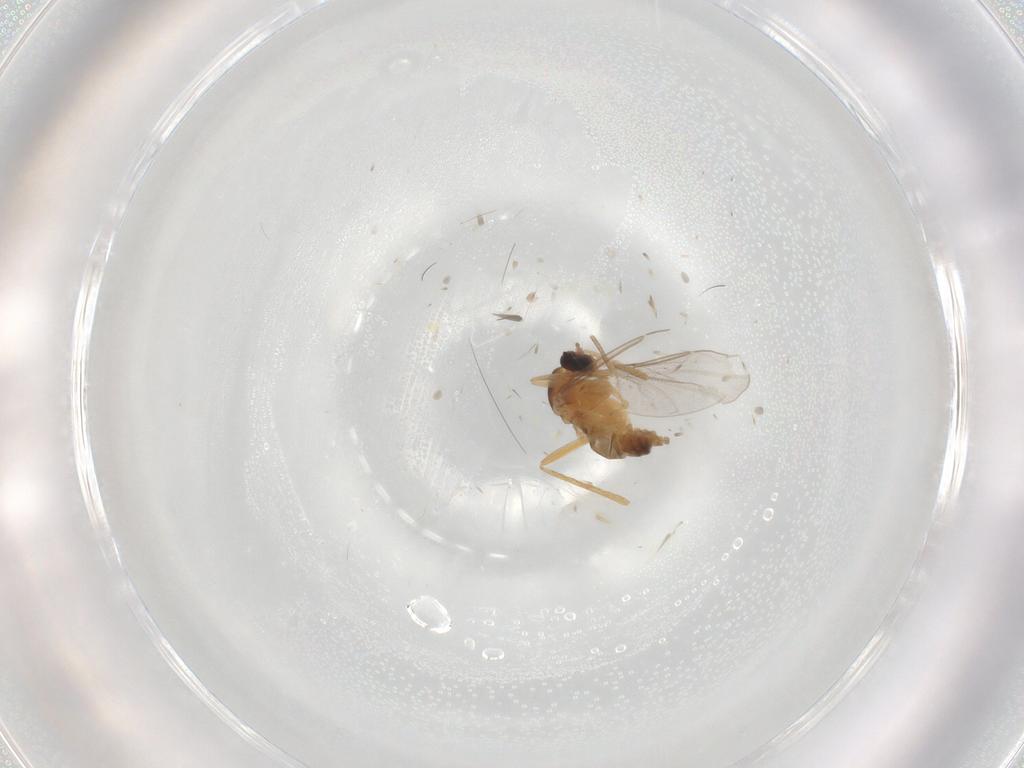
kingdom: Animalia
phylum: Arthropoda
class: Insecta
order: Diptera
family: Cecidomyiidae
